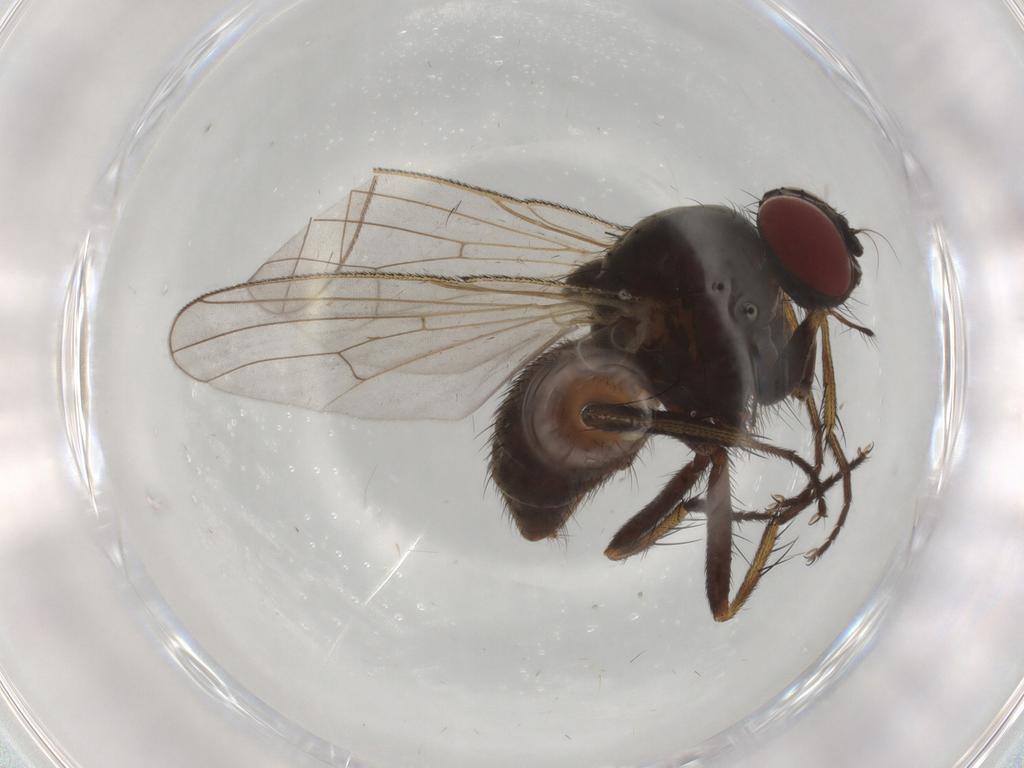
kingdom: Animalia
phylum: Arthropoda
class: Insecta
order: Diptera
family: Muscidae
